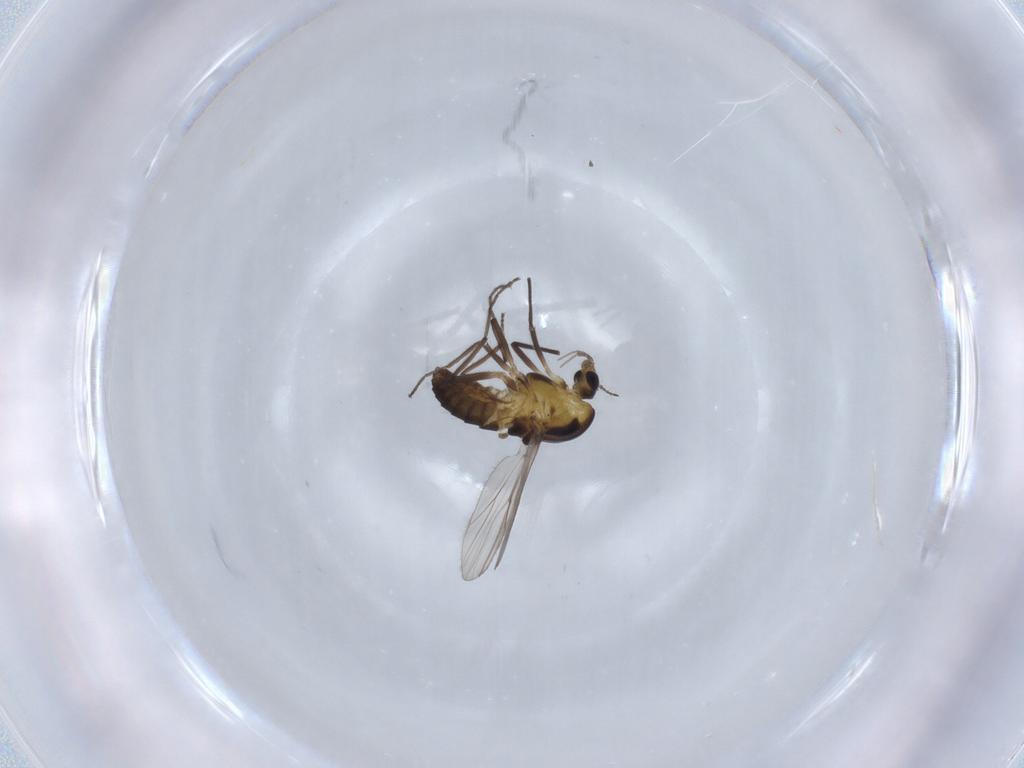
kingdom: Animalia
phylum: Arthropoda
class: Insecta
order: Diptera
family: Chironomidae
